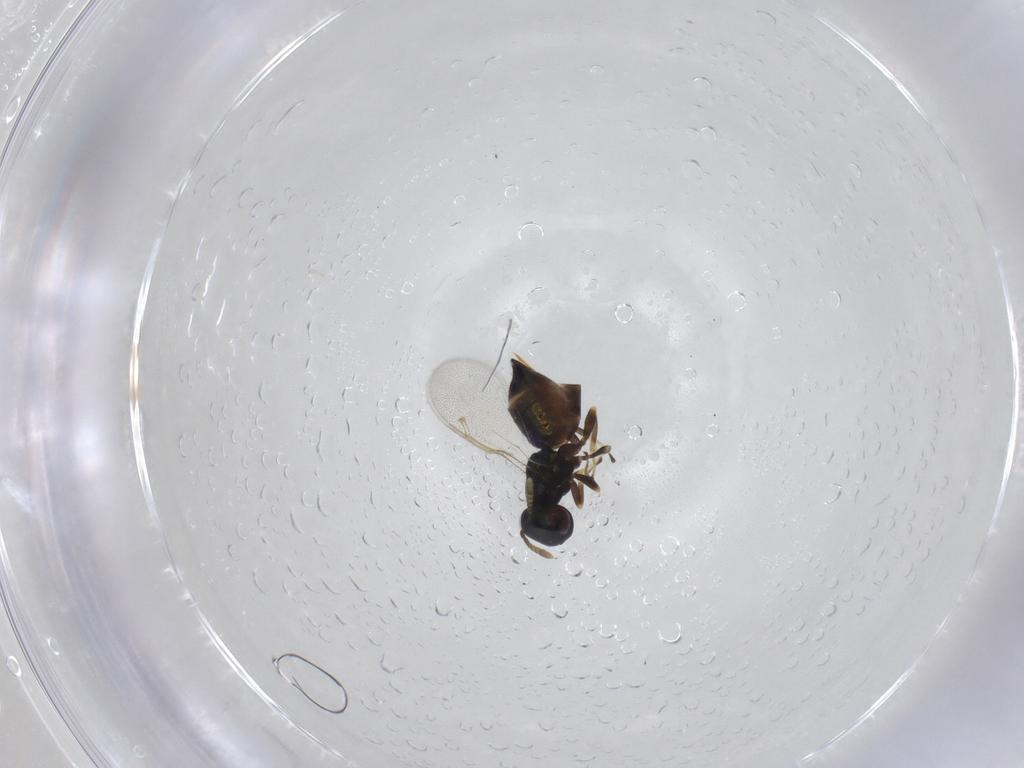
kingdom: Animalia
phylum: Arthropoda
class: Insecta
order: Hymenoptera
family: Pteromalidae
